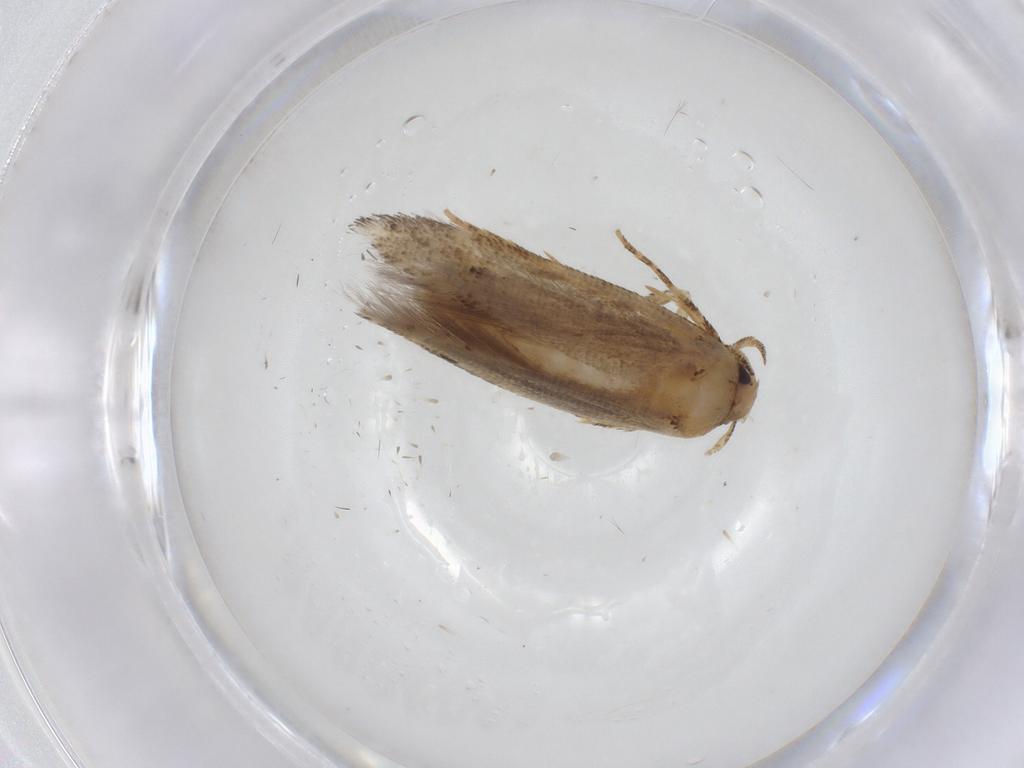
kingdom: Animalia
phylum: Arthropoda
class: Insecta
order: Lepidoptera
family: Gelechiidae
